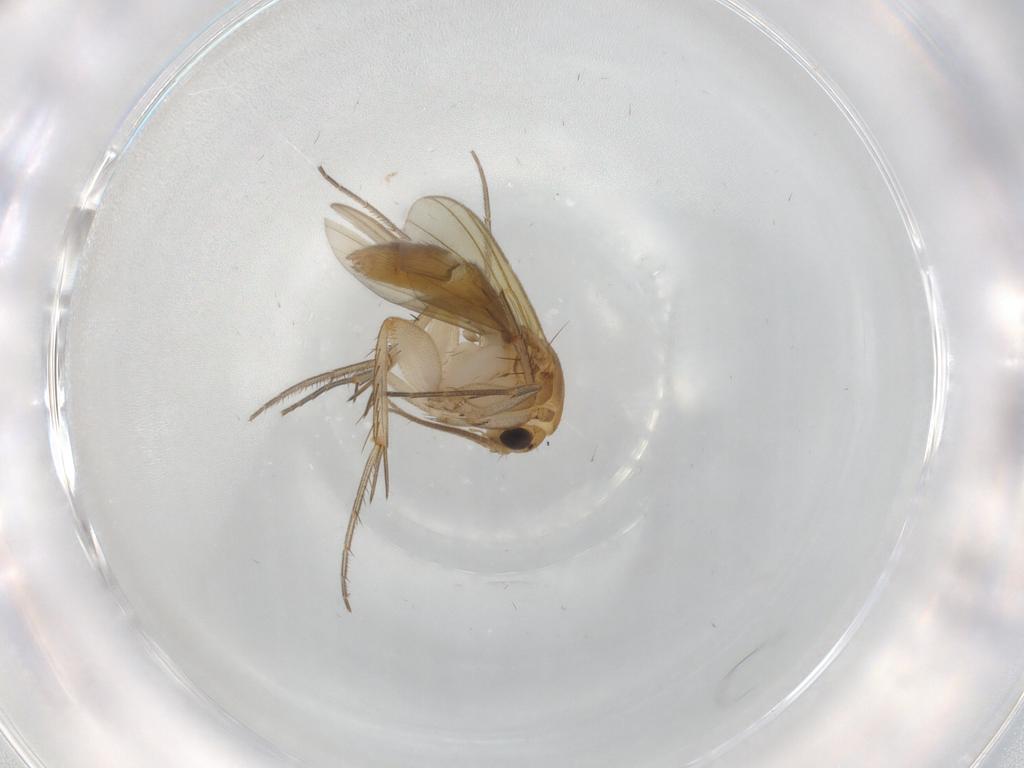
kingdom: Animalia
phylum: Arthropoda
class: Insecta
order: Diptera
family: Mycetophilidae
